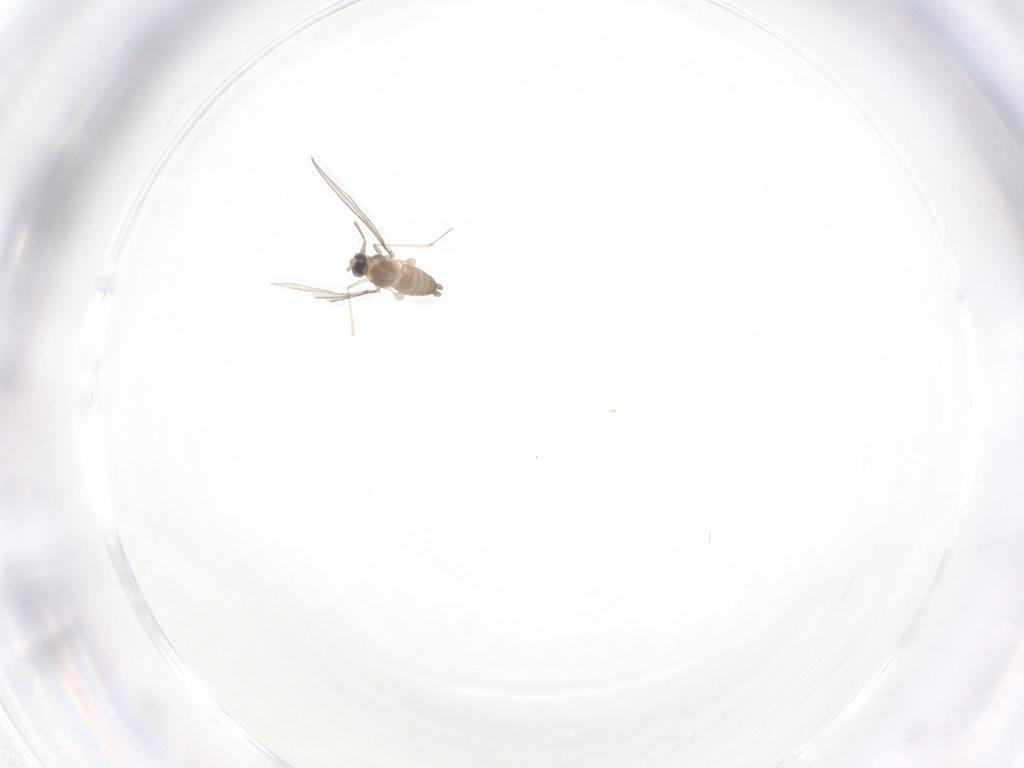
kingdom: Animalia
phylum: Arthropoda
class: Insecta
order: Diptera
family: Cecidomyiidae
